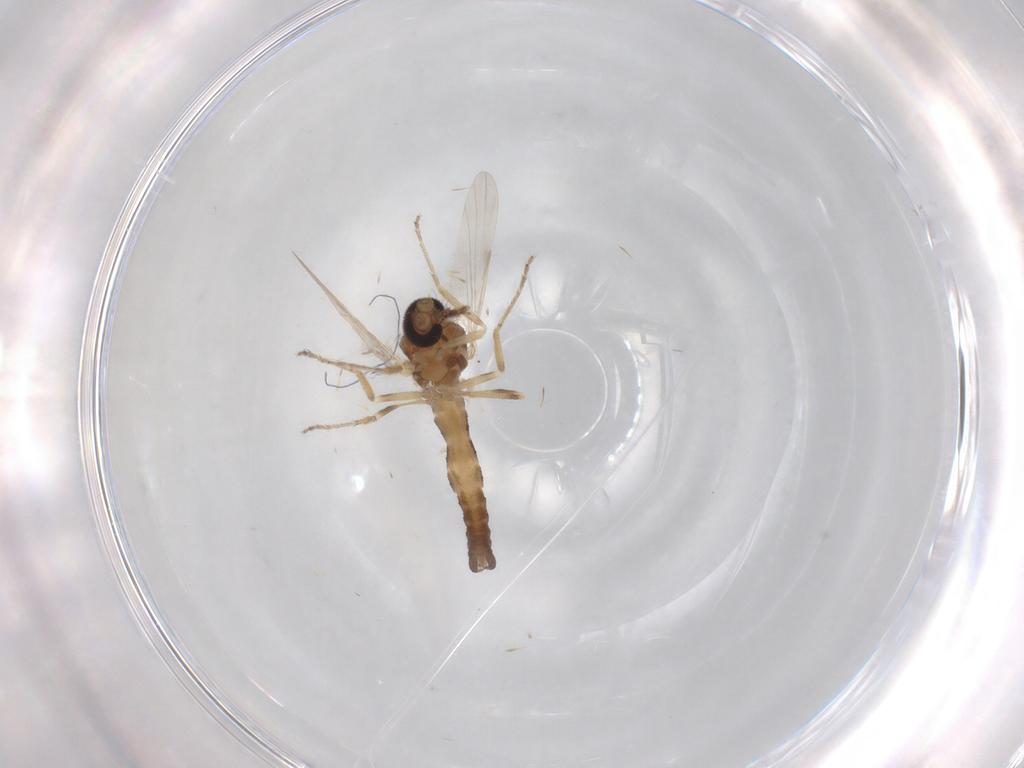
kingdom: Animalia
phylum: Arthropoda
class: Insecta
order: Diptera
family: Ceratopogonidae
